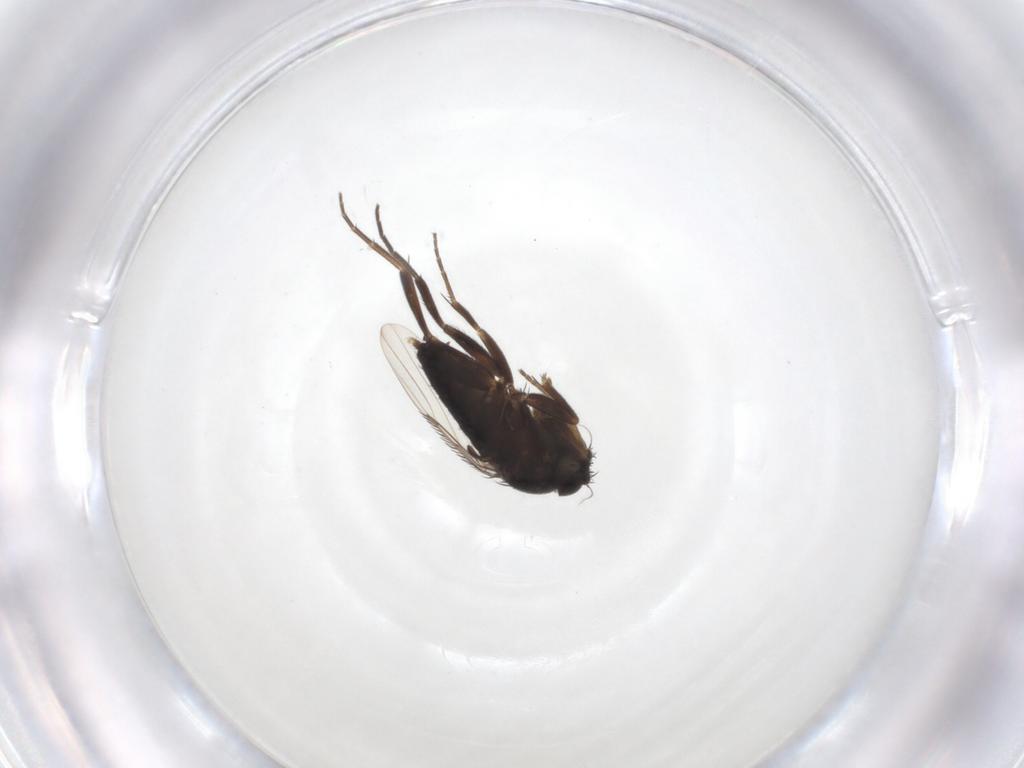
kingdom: Animalia
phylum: Arthropoda
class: Insecta
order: Diptera
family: Phoridae
